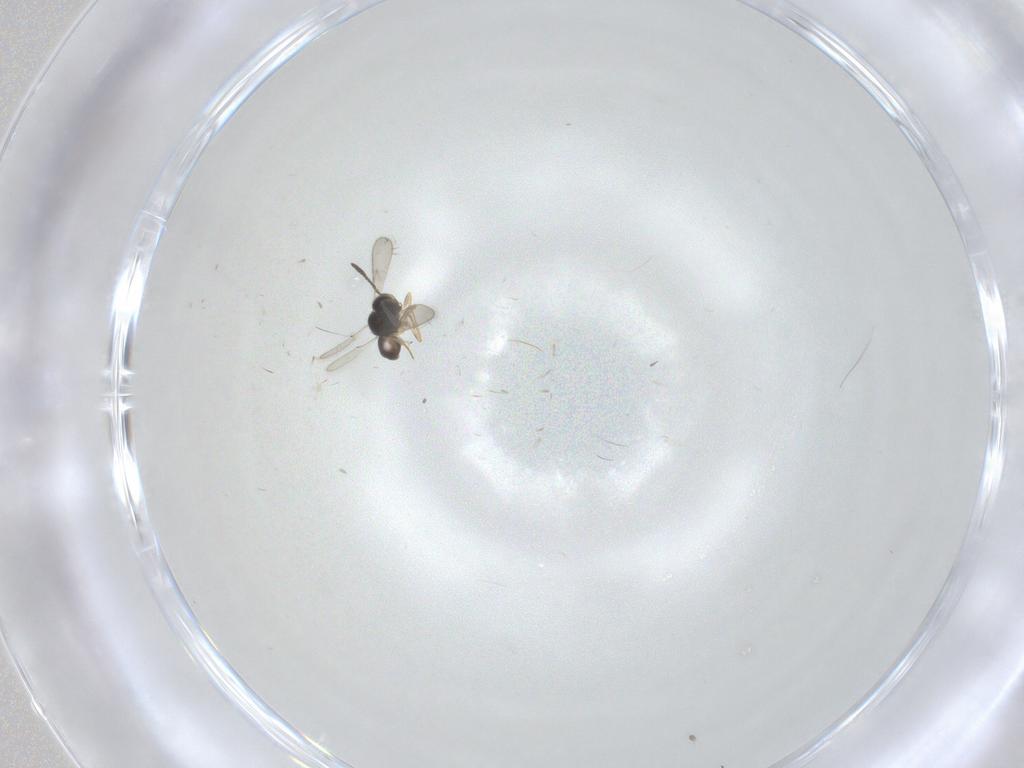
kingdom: Animalia
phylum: Arthropoda
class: Insecta
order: Hymenoptera
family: Scelionidae
